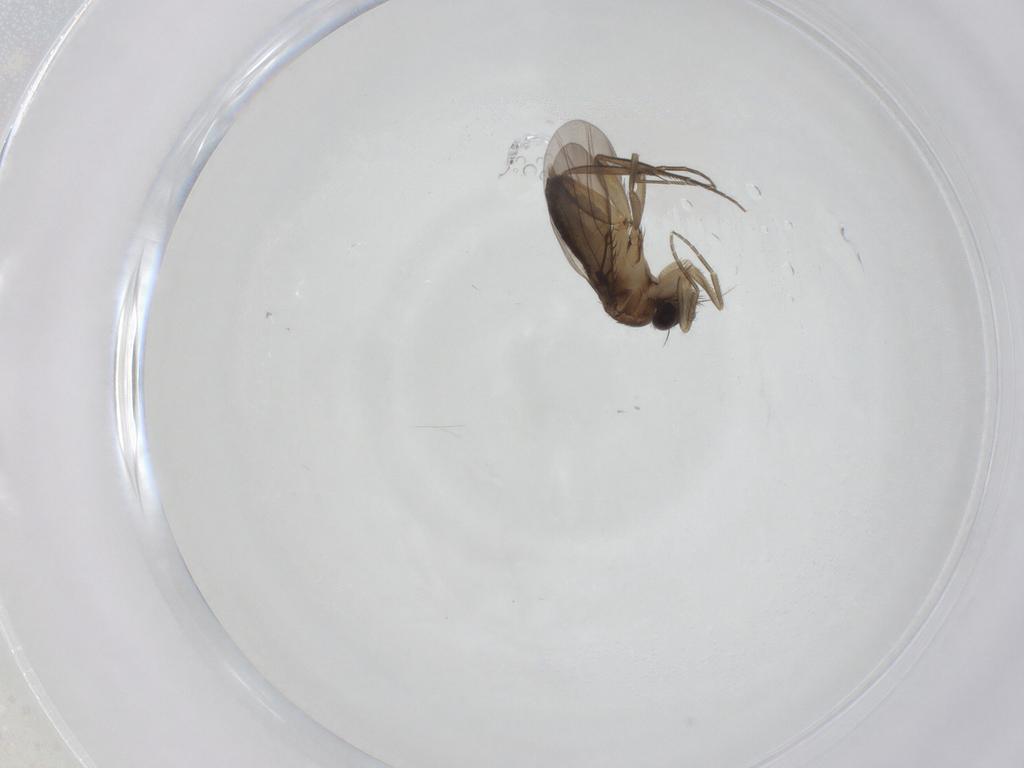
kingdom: Animalia
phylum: Arthropoda
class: Insecta
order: Diptera
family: Phoridae
